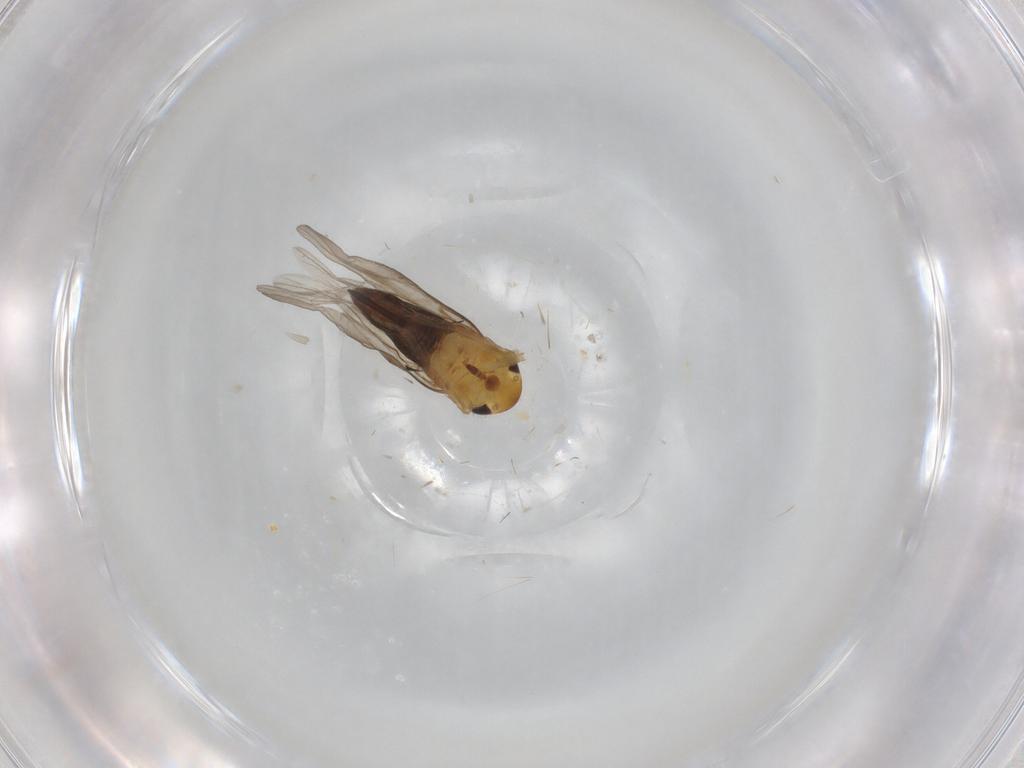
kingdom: Animalia
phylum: Arthropoda
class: Insecta
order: Hemiptera
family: Cicadellidae
